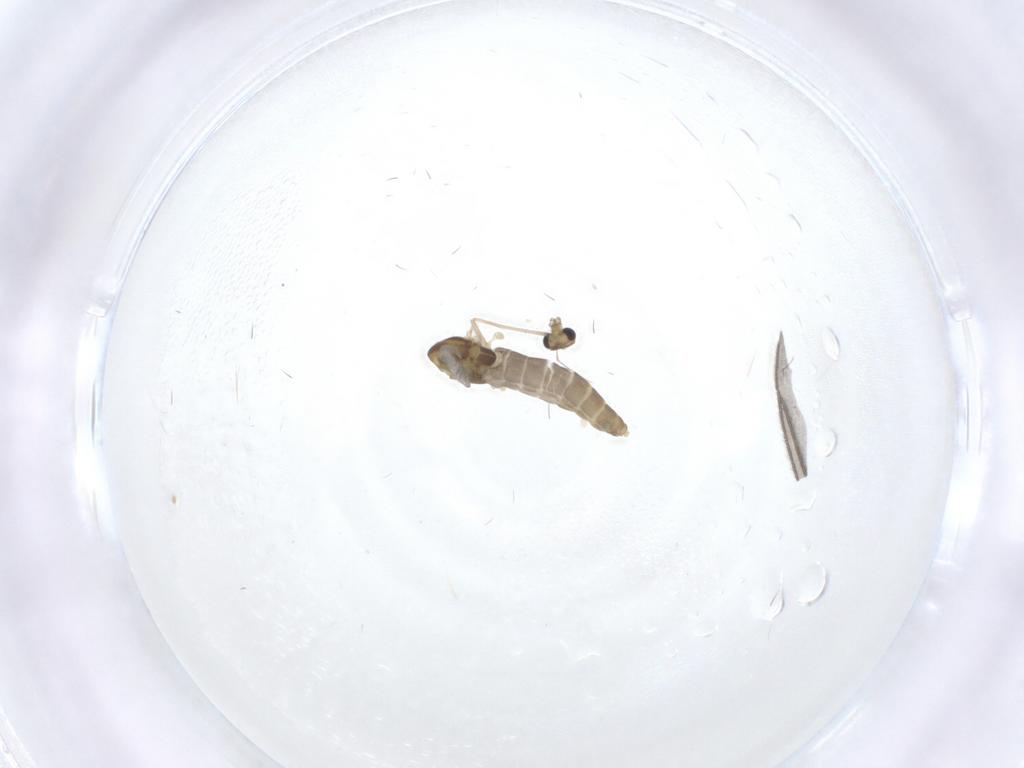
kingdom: Animalia
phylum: Arthropoda
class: Insecta
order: Diptera
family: Chironomidae
